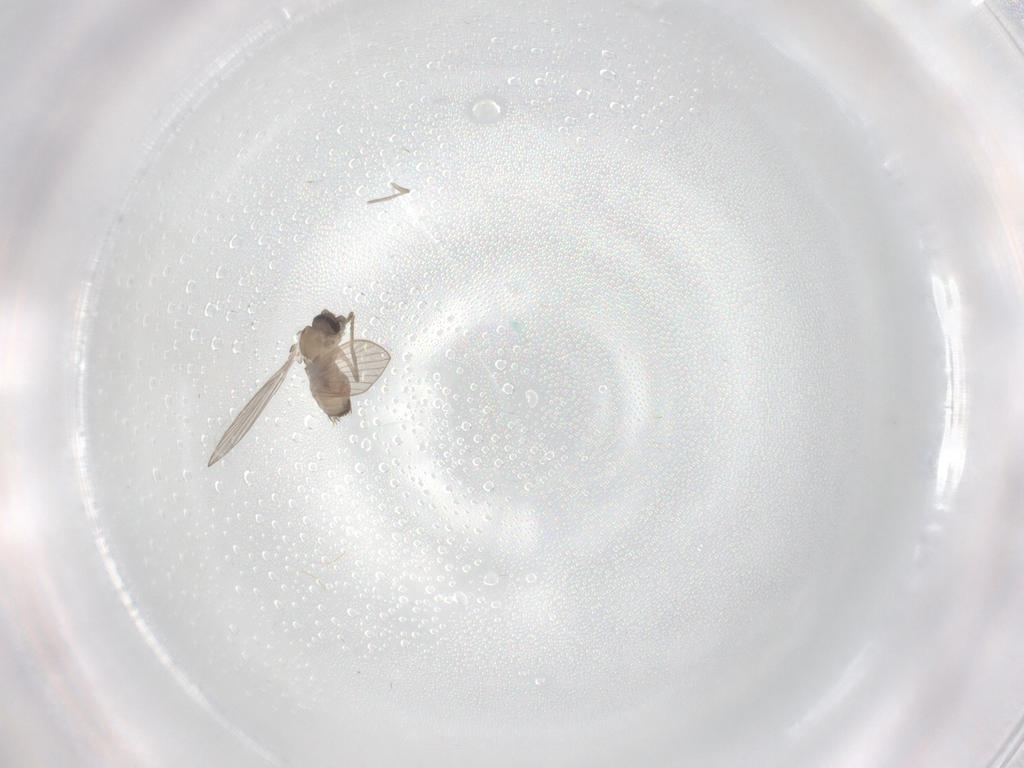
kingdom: Animalia
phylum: Arthropoda
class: Insecta
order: Diptera
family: Psychodidae
